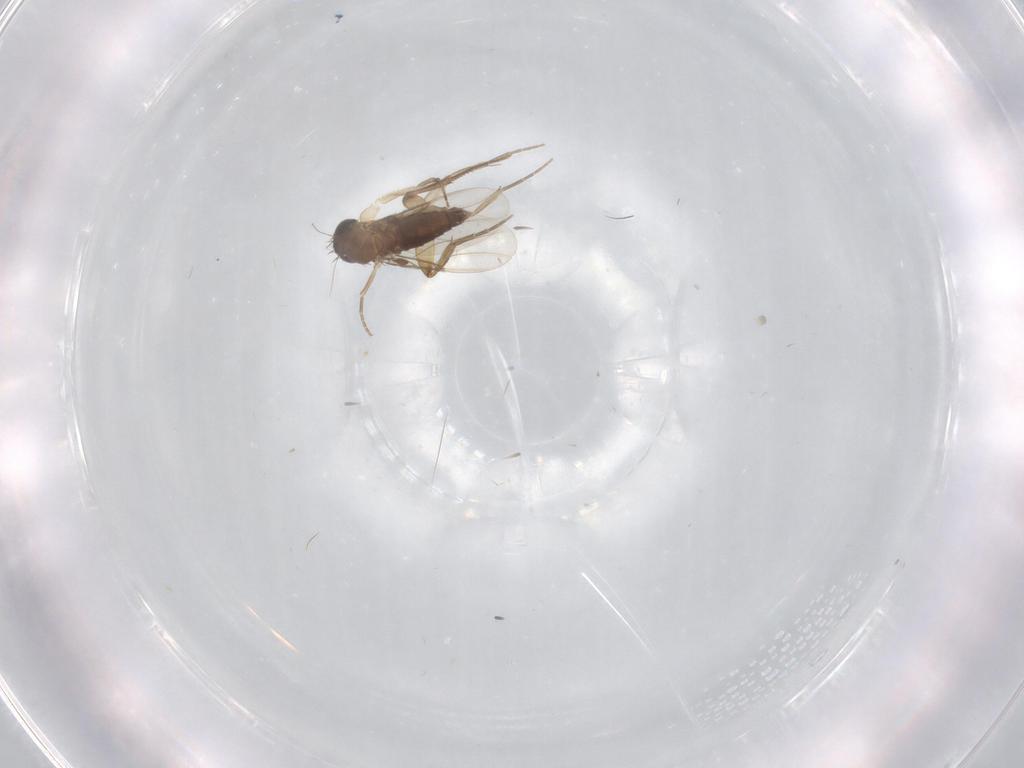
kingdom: Animalia
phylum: Arthropoda
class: Insecta
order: Diptera
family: Phoridae
